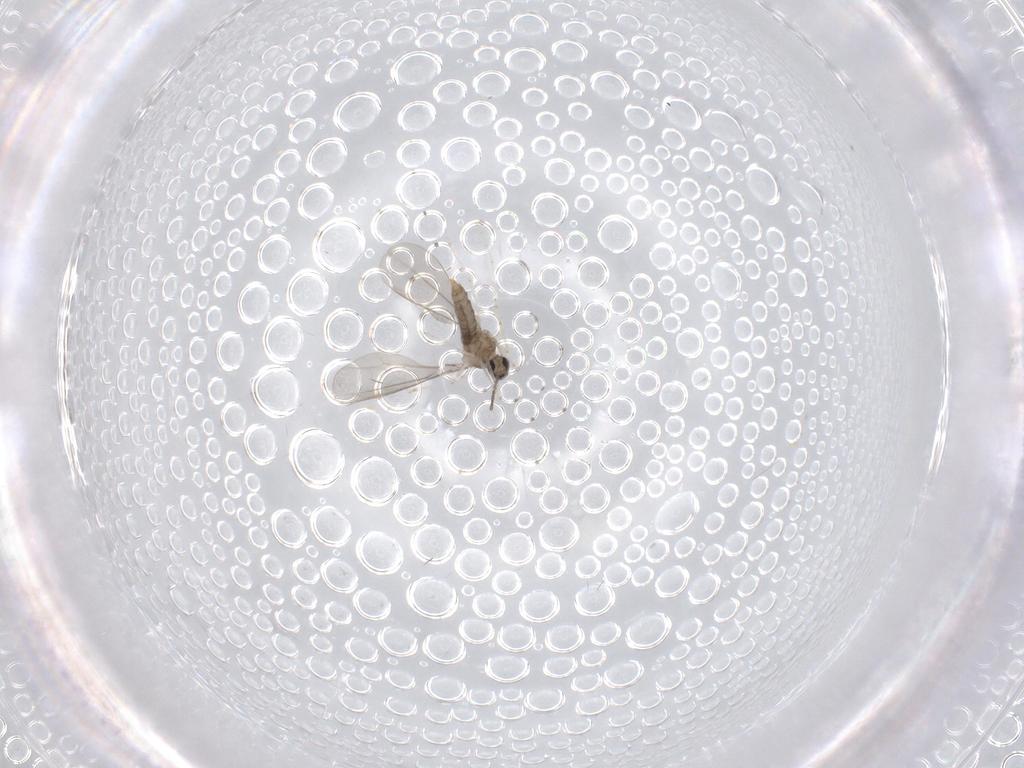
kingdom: Animalia
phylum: Arthropoda
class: Insecta
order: Diptera
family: Cecidomyiidae
